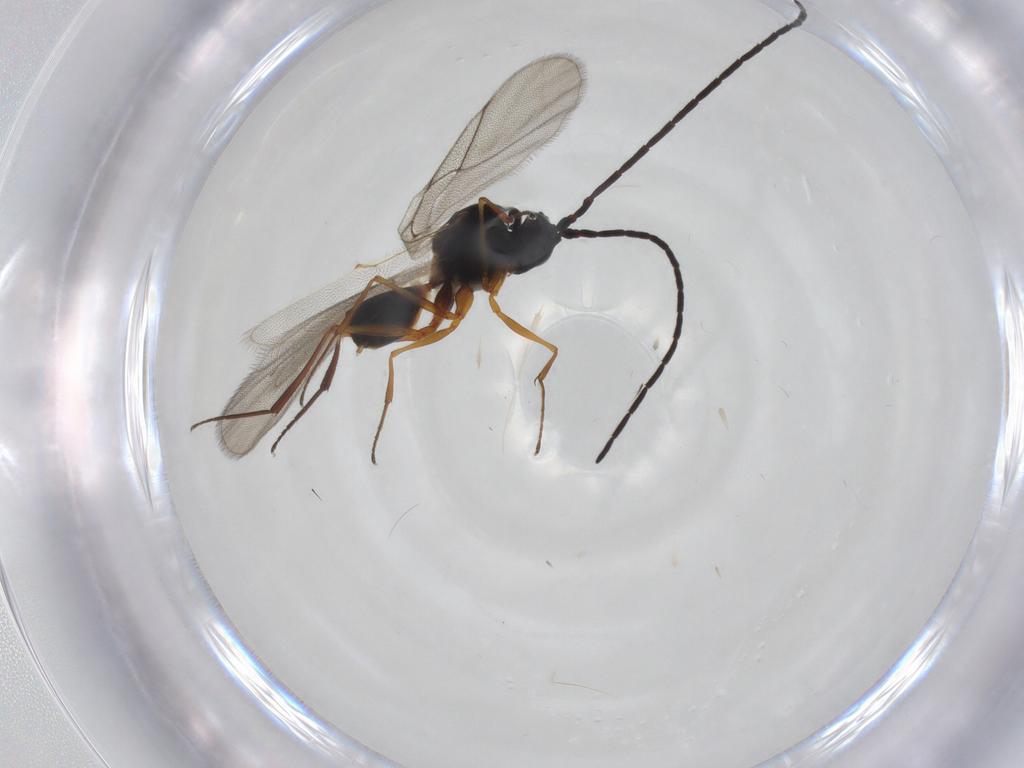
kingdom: Animalia
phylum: Arthropoda
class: Insecta
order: Hymenoptera
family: Figitidae
